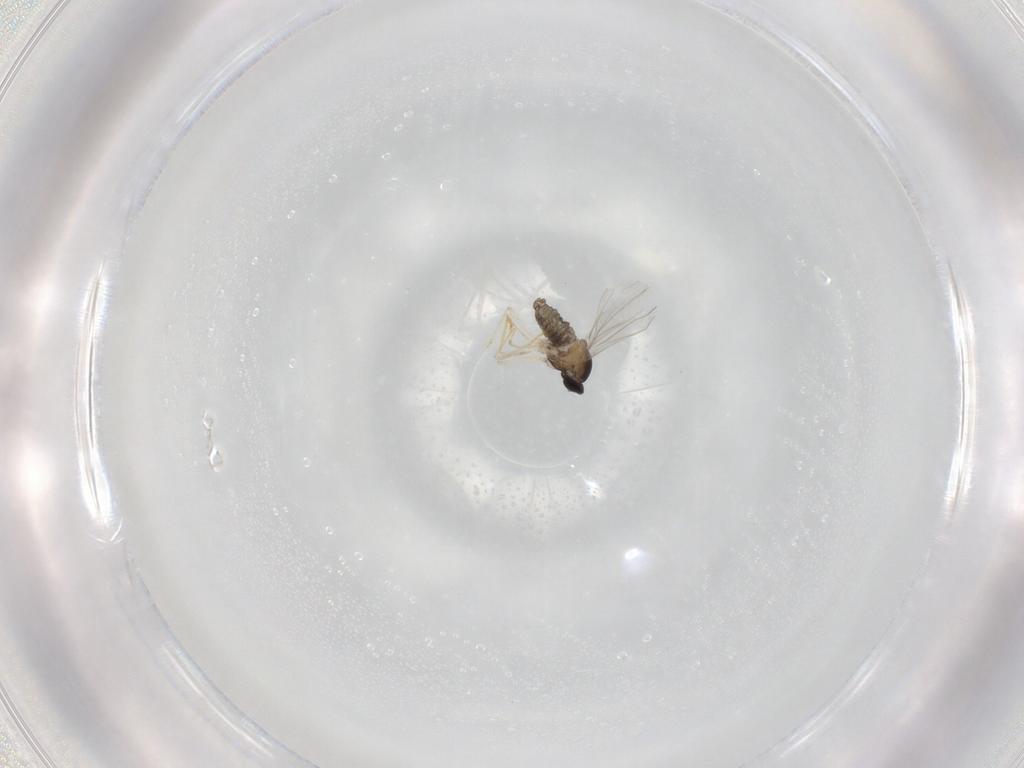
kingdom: Animalia
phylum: Arthropoda
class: Insecta
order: Diptera
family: Cecidomyiidae
